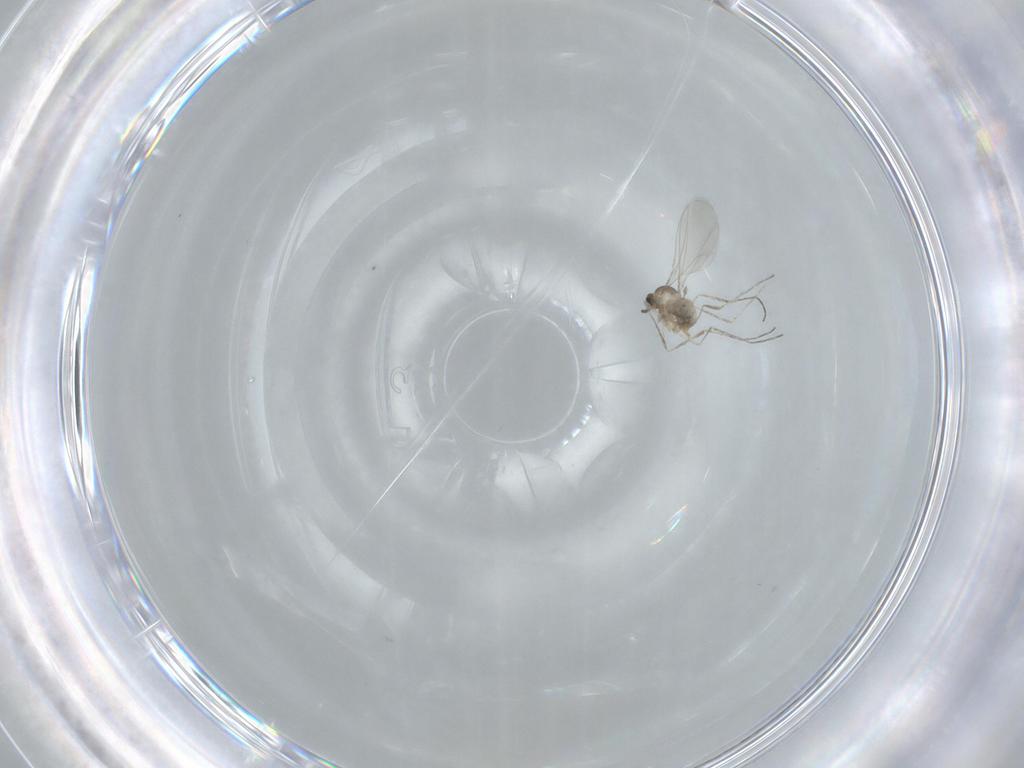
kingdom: Animalia
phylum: Arthropoda
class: Insecta
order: Diptera
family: Cecidomyiidae
